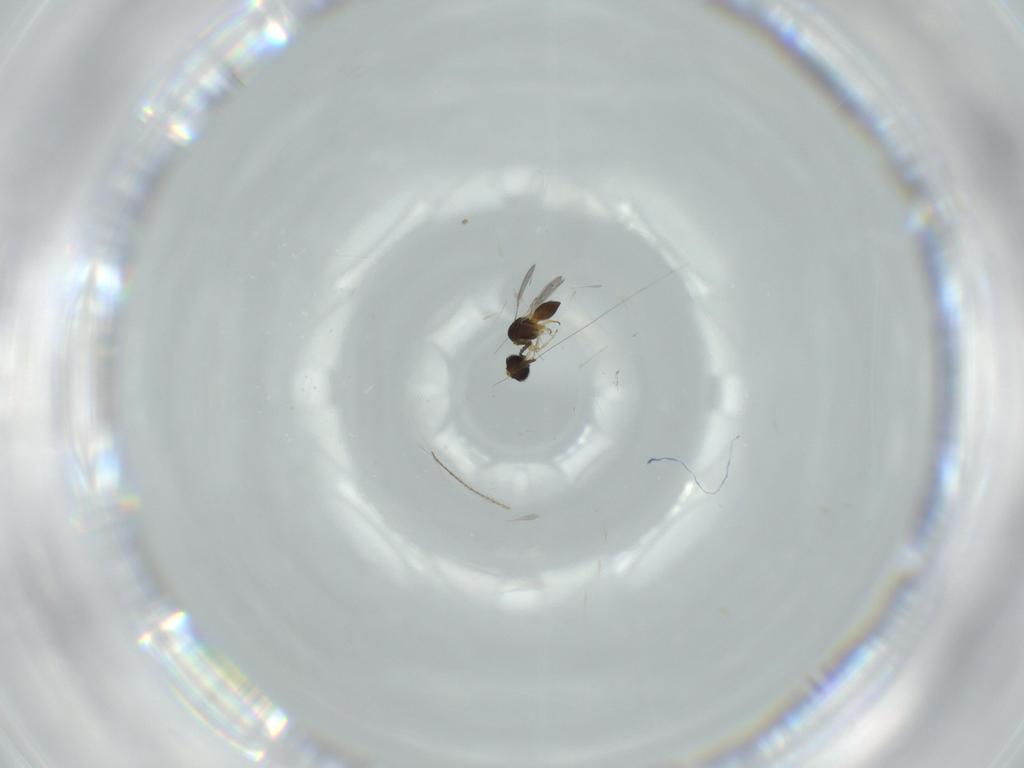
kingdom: Animalia
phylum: Arthropoda
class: Insecta
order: Hymenoptera
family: Scelionidae
